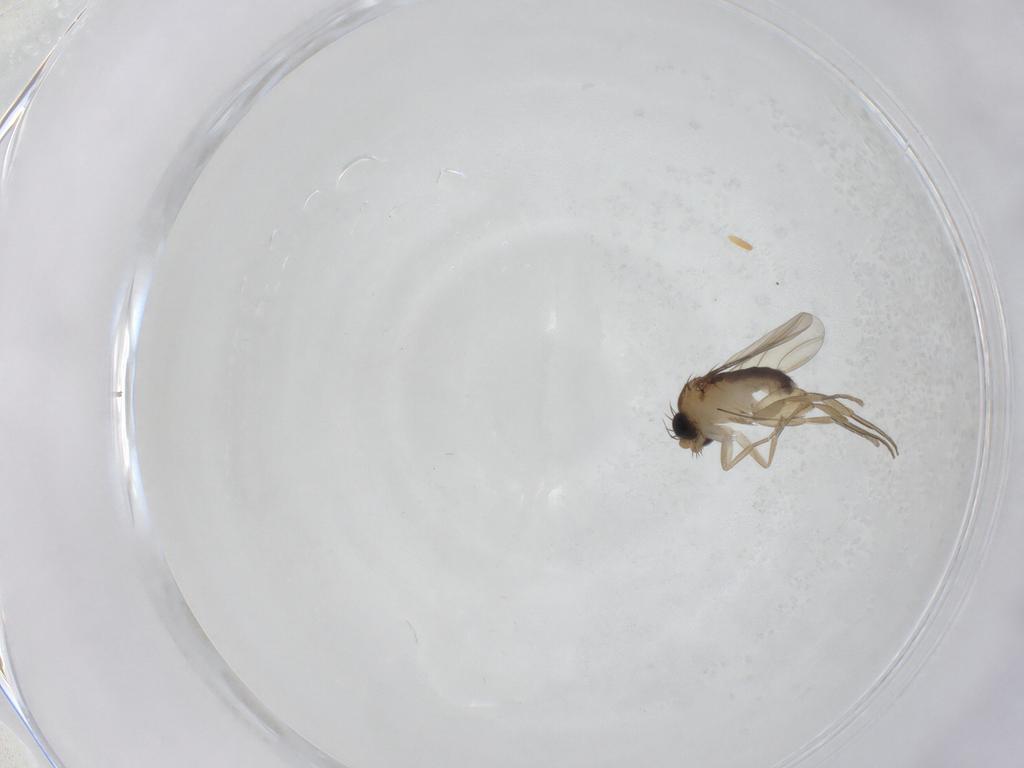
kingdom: Animalia
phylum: Arthropoda
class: Insecta
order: Diptera
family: Phoridae
